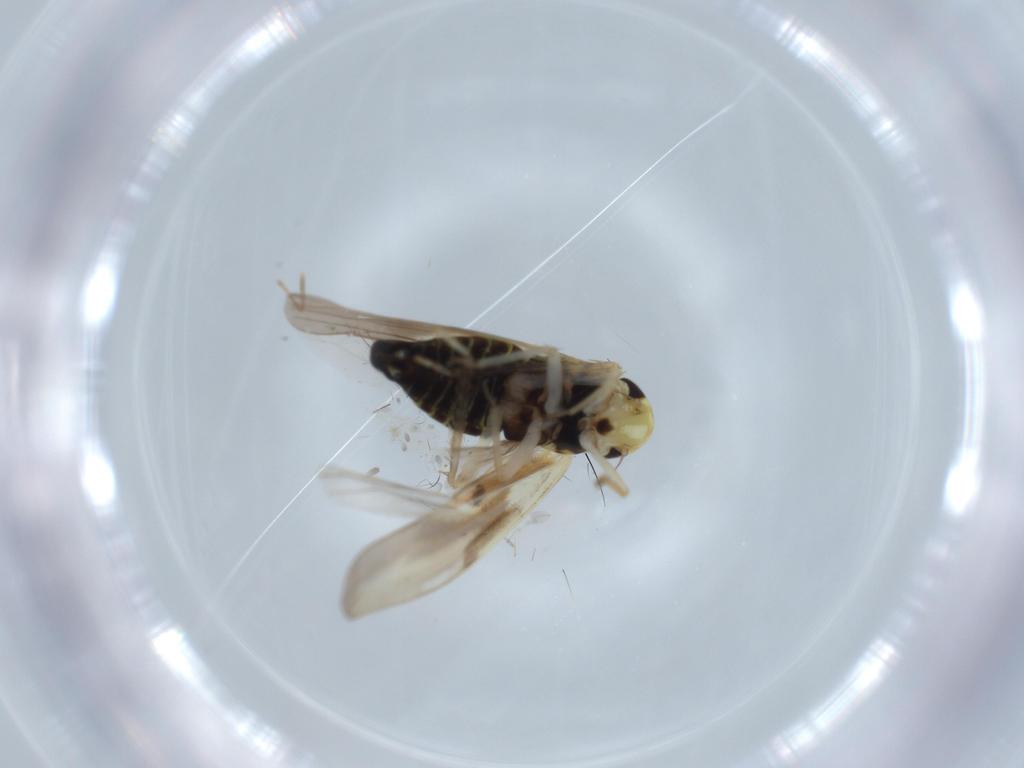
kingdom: Animalia
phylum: Arthropoda
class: Insecta
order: Hemiptera
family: Cicadellidae
